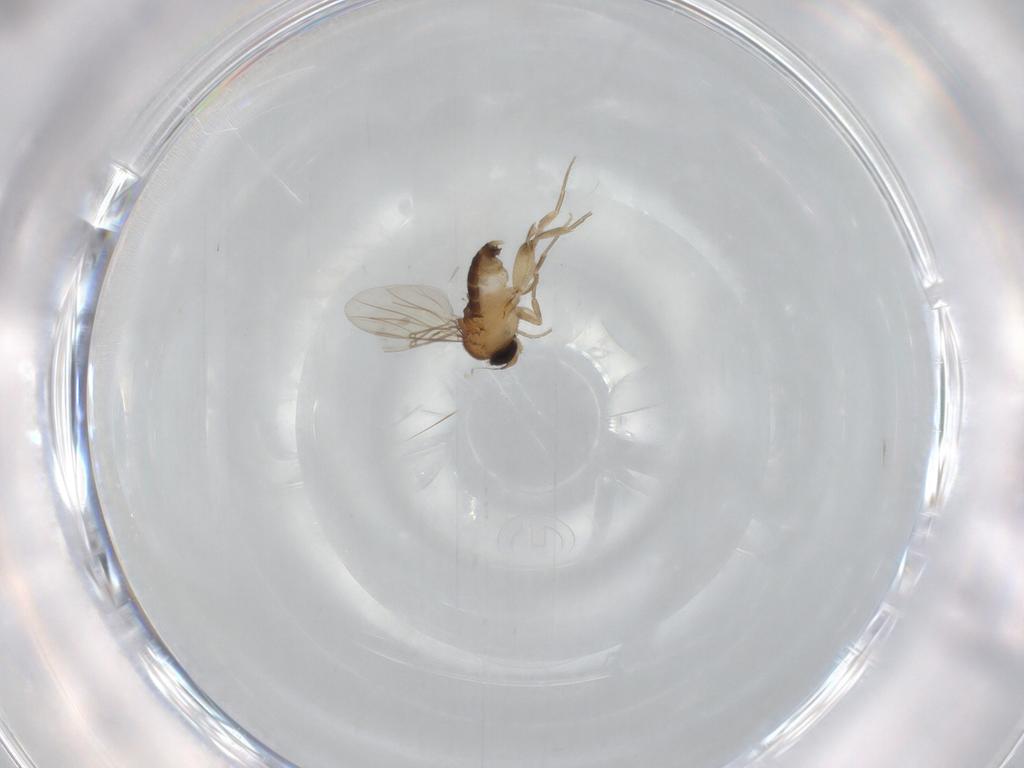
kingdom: Animalia
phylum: Arthropoda
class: Insecta
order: Diptera
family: Phoridae
